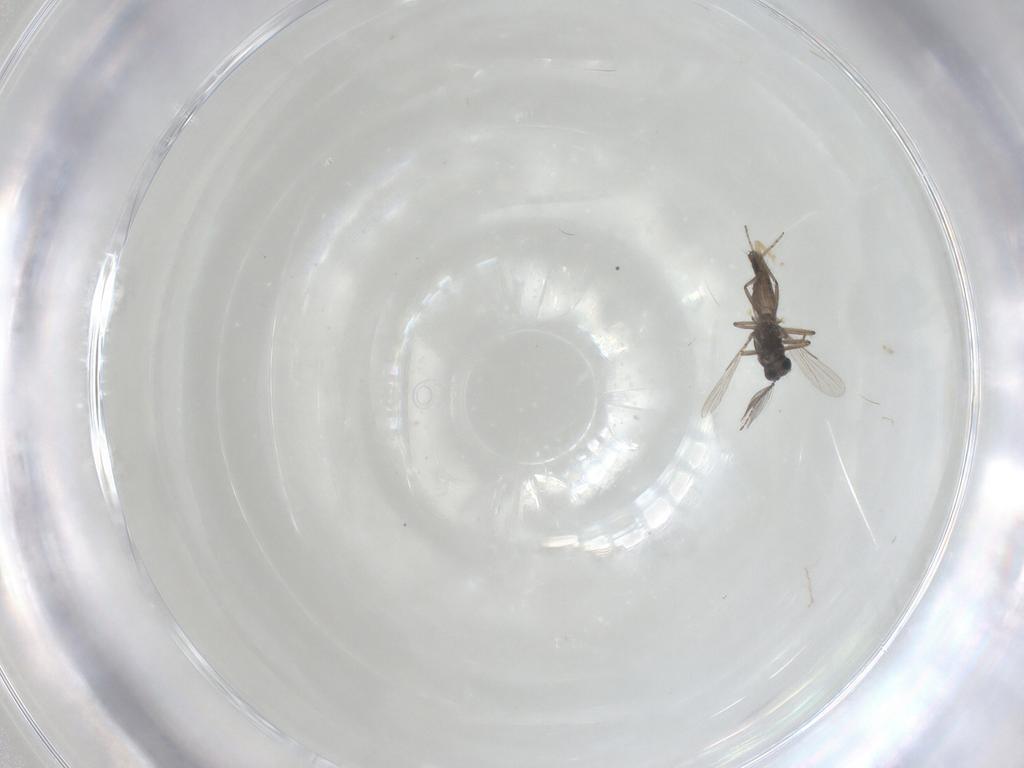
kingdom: Animalia
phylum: Arthropoda
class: Insecta
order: Diptera
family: Ceratopogonidae
